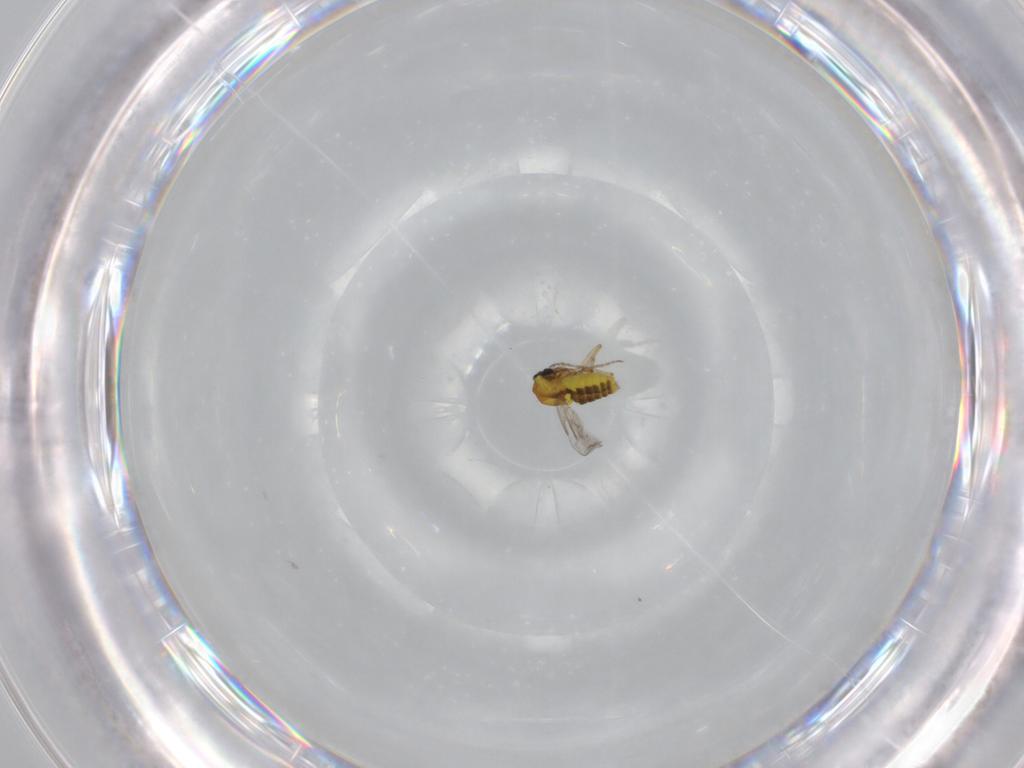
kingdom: Animalia
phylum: Arthropoda
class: Insecta
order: Diptera
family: Ceratopogonidae
